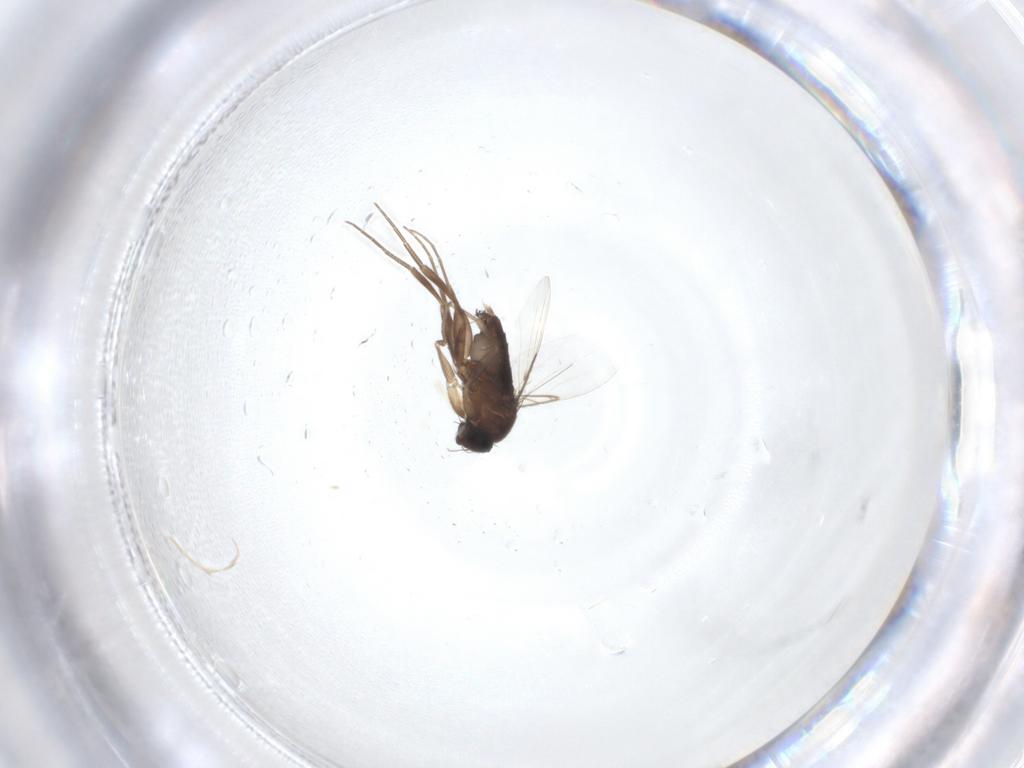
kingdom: Animalia
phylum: Arthropoda
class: Insecta
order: Diptera
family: Phoridae
